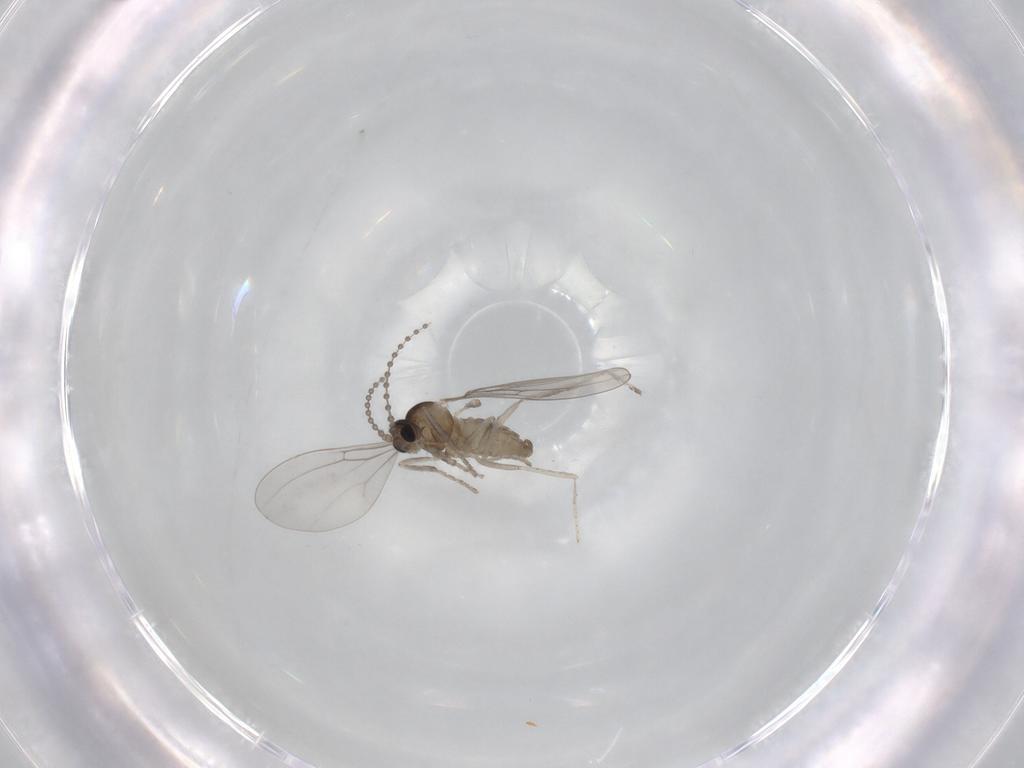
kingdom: Animalia
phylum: Arthropoda
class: Insecta
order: Diptera
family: Cecidomyiidae
